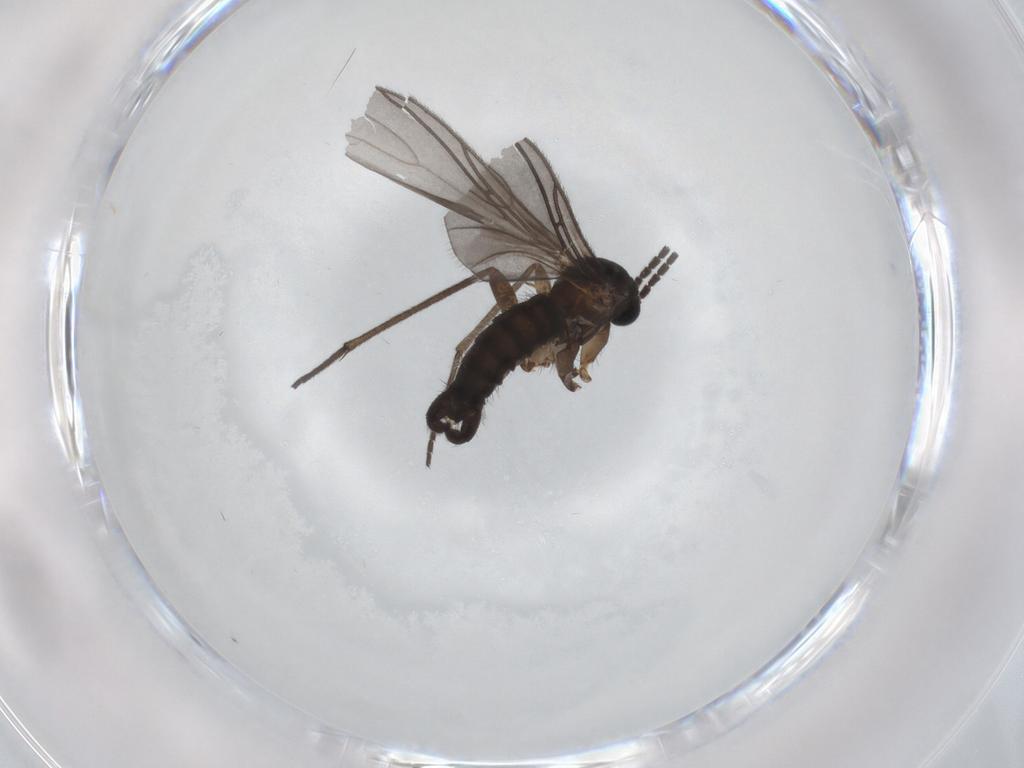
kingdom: Animalia
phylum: Arthropoda
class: Insecta
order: Diptera
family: Sciaridae
